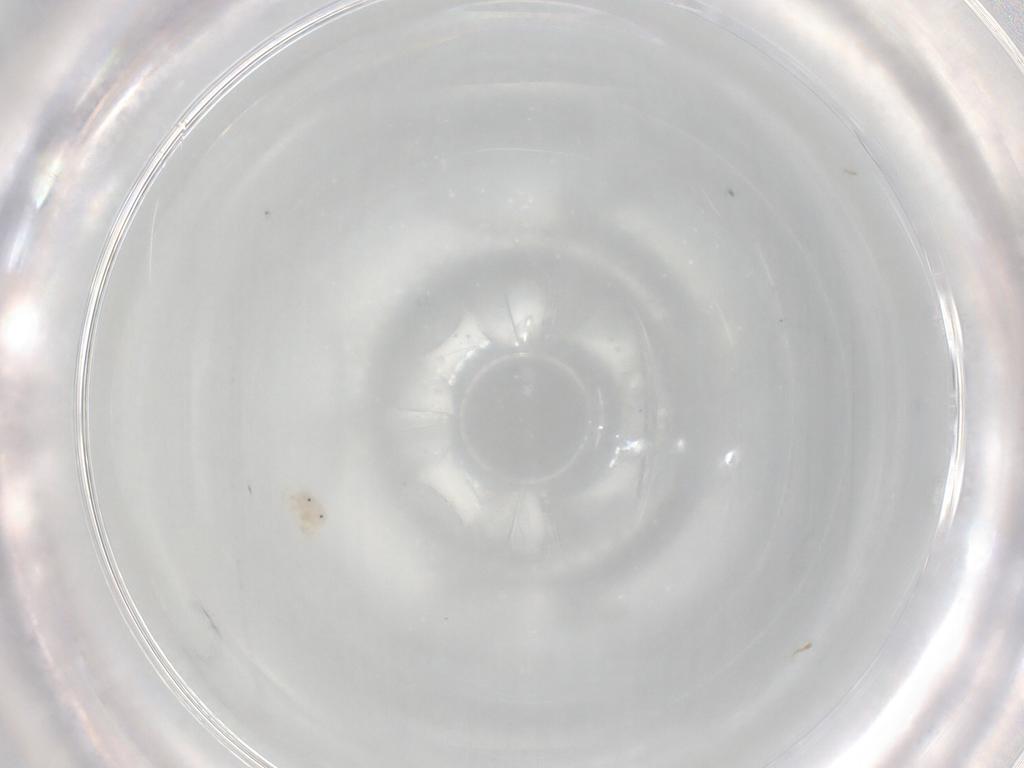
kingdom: Animalia
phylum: Arthropoda
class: Arachnida
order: Trombidiformes
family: Sperchontidae
